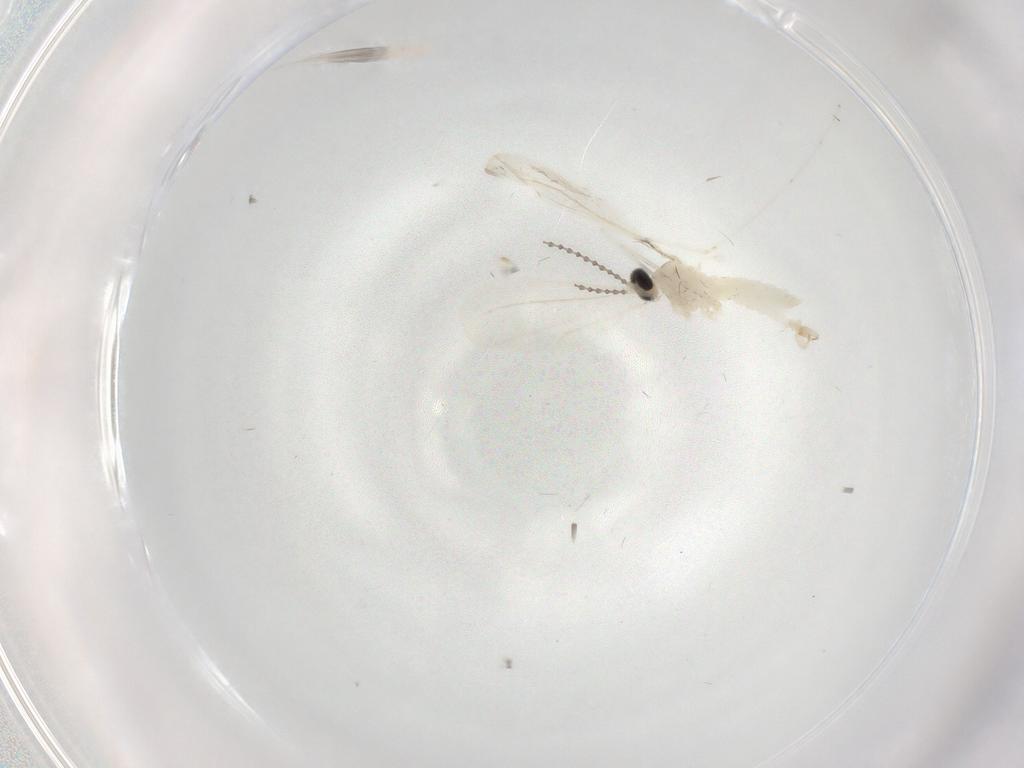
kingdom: Animalia
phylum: Arthropoda
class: Insecta
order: Diptera
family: Cecidomyiidae
